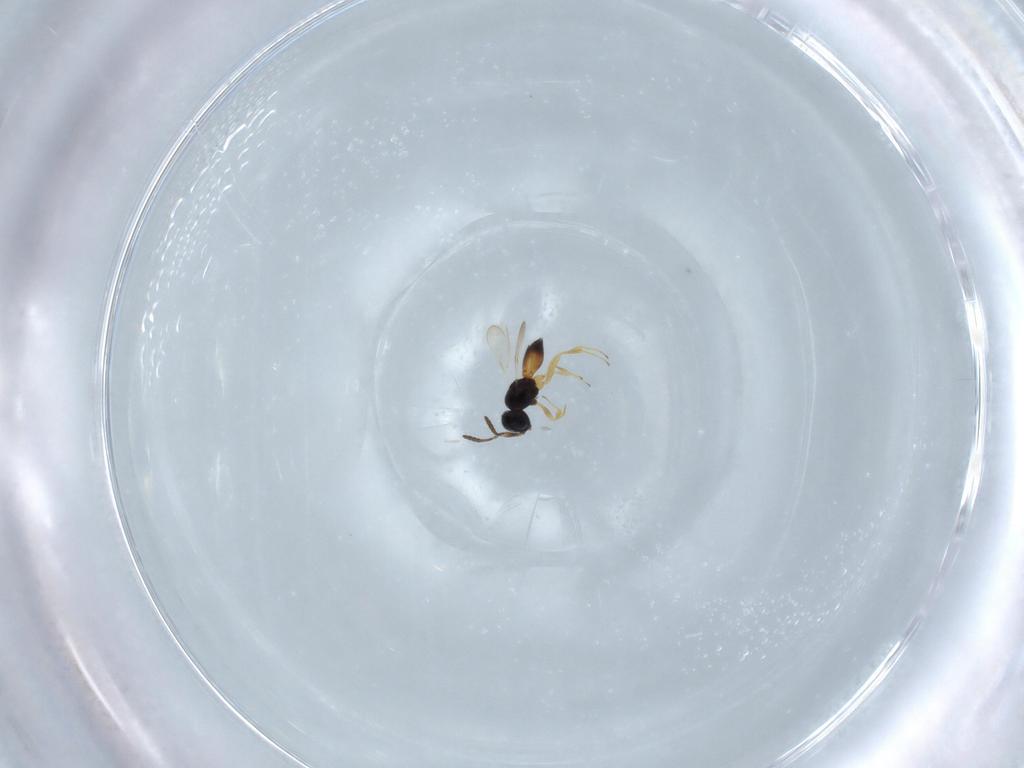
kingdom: Animalia
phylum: Arthropoda
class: Insecta
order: Hymenoptera
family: Scelionidae
